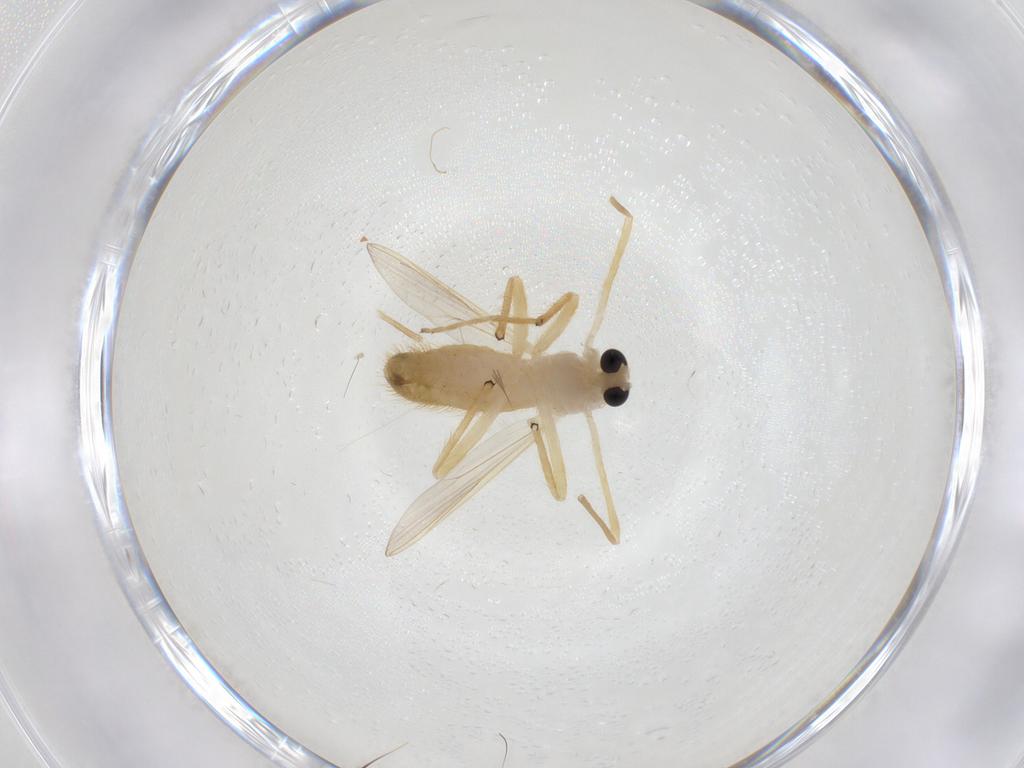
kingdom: Animalia
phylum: Arthropoda
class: Insecta
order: Diptera
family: Chironomidae
